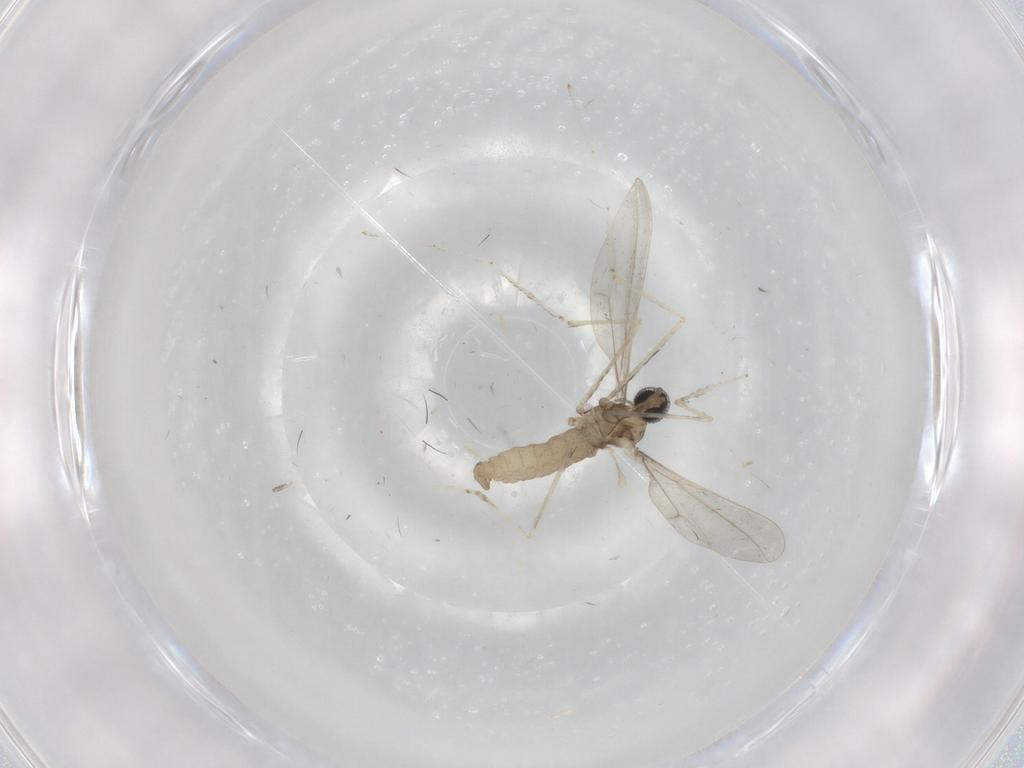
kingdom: Animalia
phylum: Arthropoda
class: Insecta
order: Diptera
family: Cecidomyiidae
